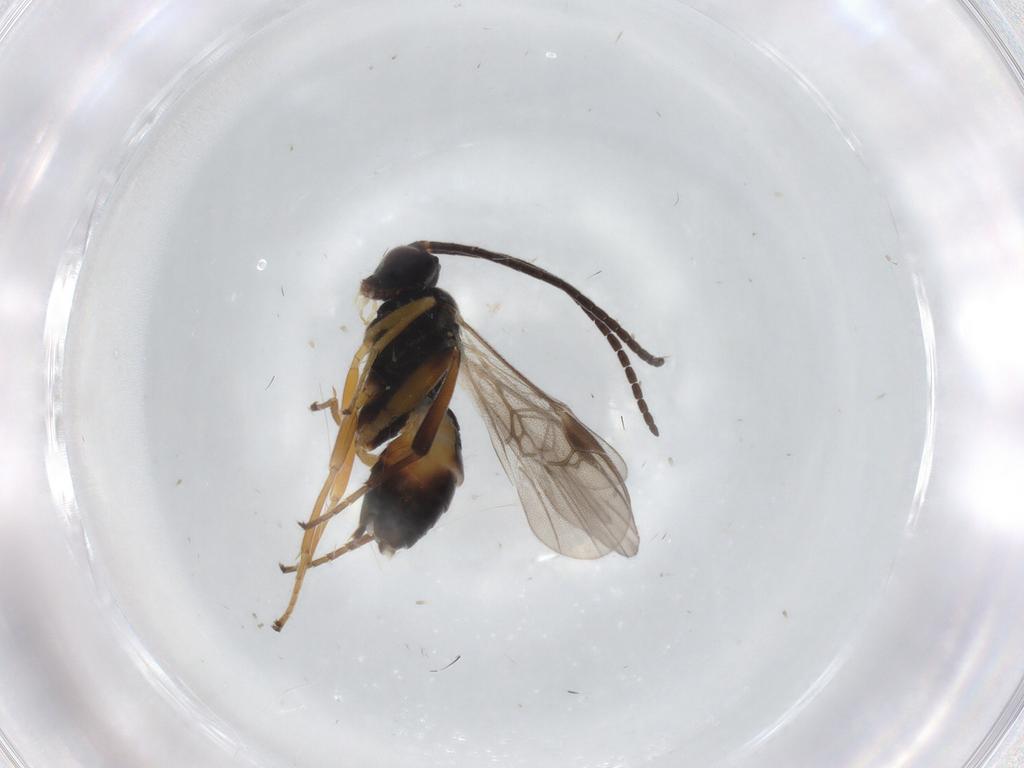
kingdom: Animalia
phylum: Arthropoda
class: Insecta
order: Hymenoptera
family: Braconidae
